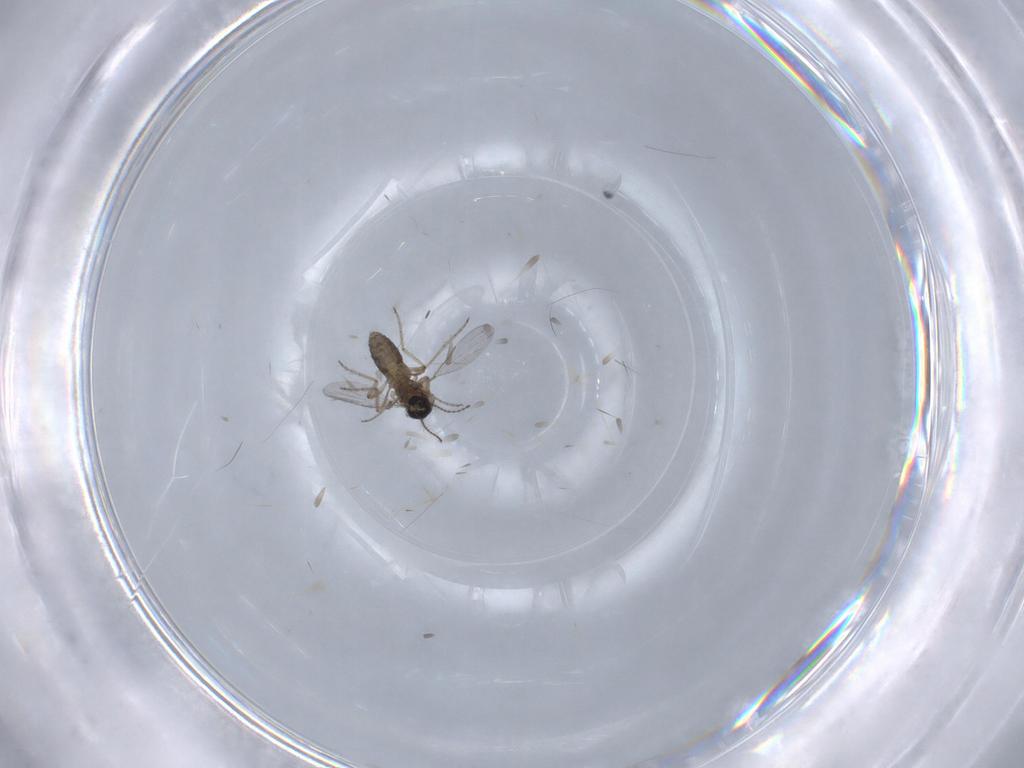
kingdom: Animalia
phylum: Arthropoda
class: Insecta
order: Diptera
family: Ceratopogonidae
